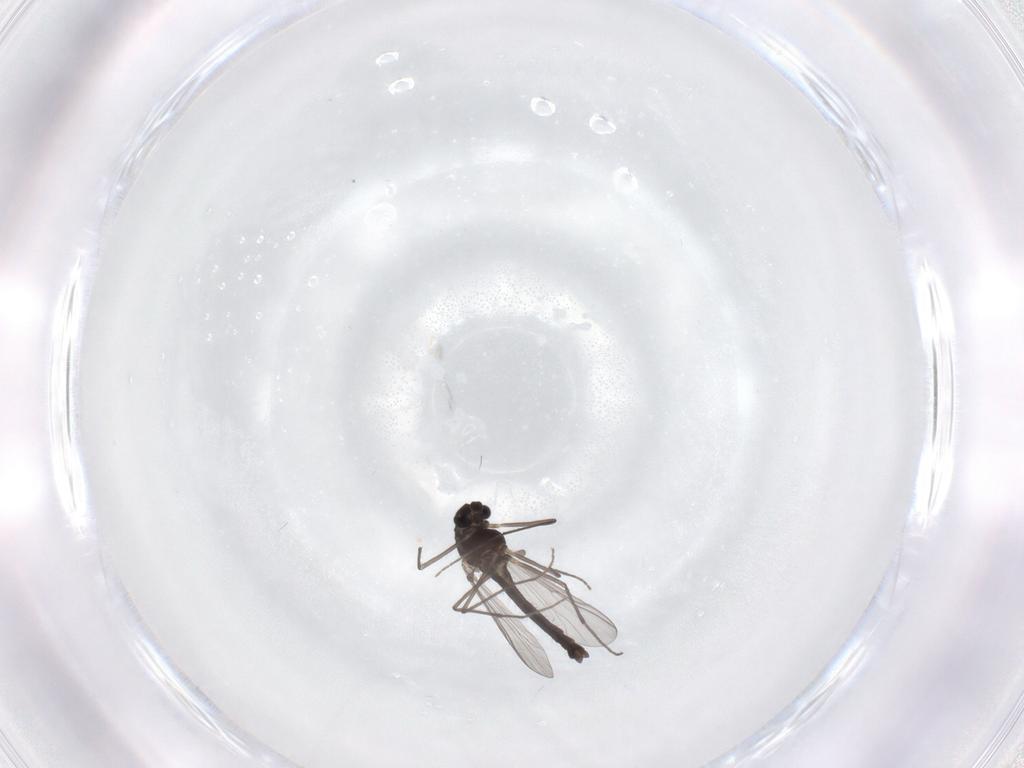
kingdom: Animalia
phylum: Arthropoda
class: Insecta
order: Diptera
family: Chironomidae
